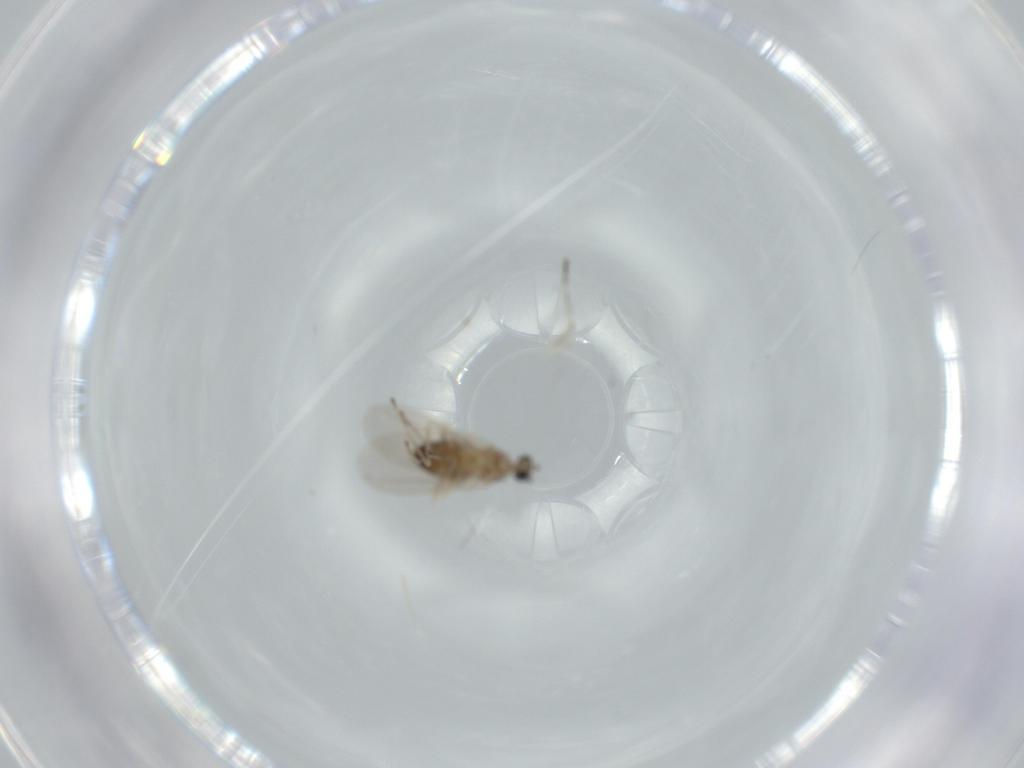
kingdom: Animalia
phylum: Arthropoda
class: Insecta
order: Diptera
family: Cecidomyiidae
